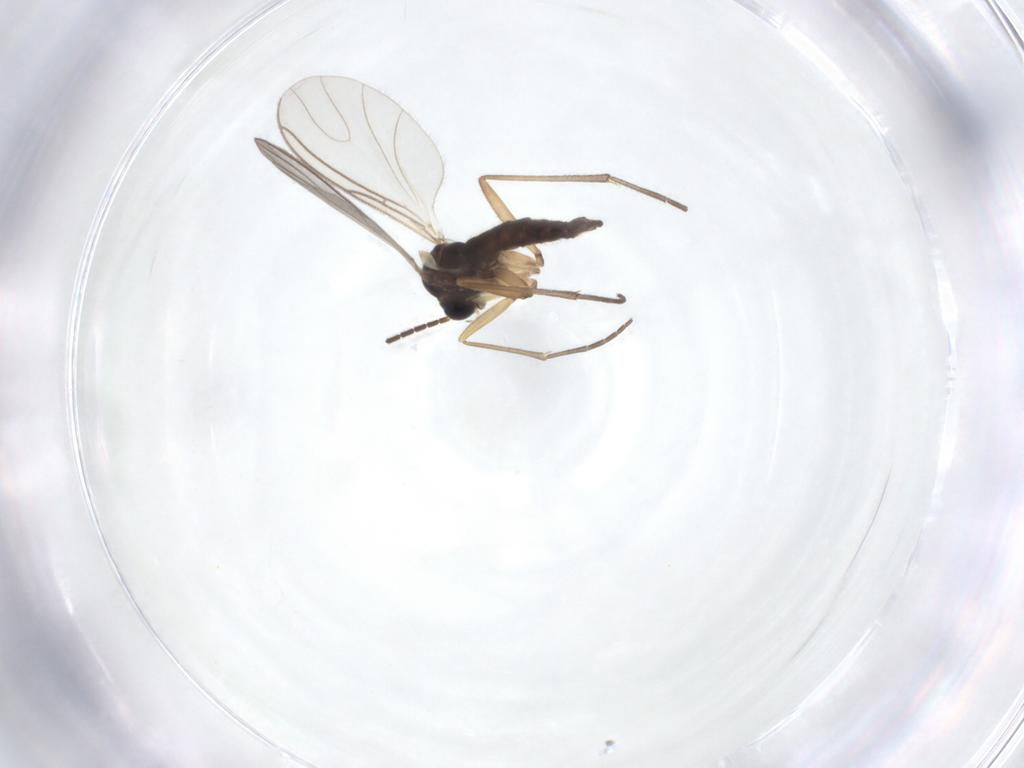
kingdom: Animalia
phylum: Arthropoda
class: Insecta
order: Diptera
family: Sciaridae
